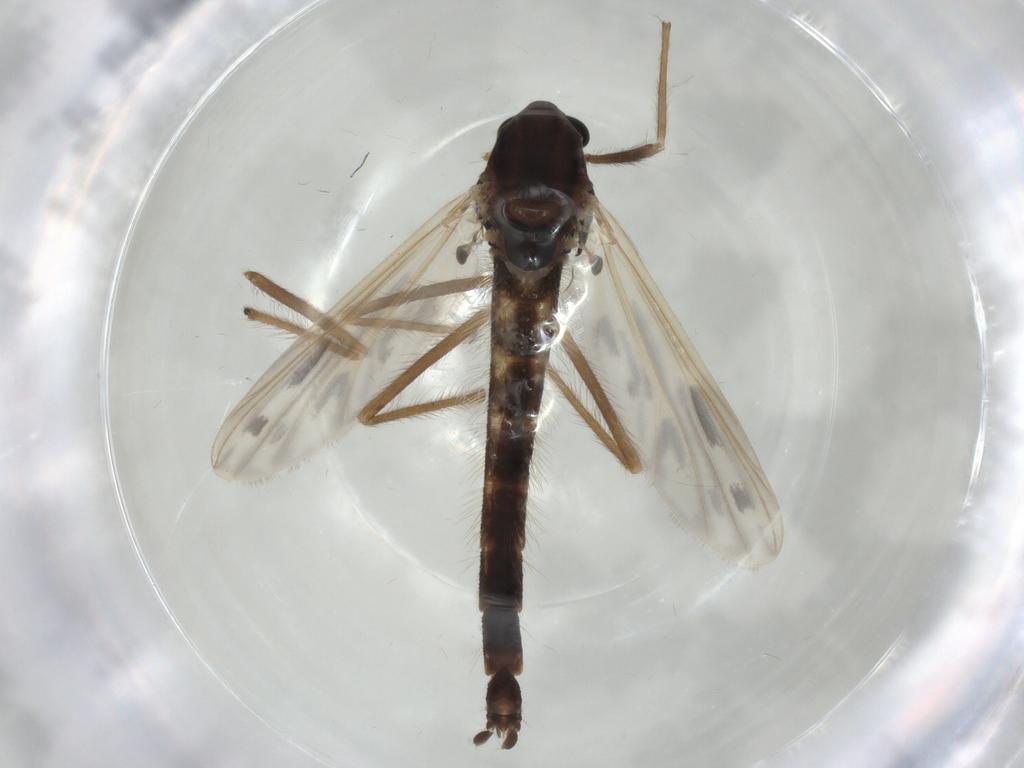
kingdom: Animalia
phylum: Arthropoda
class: Insecta
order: Diptera
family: Chironomidae
